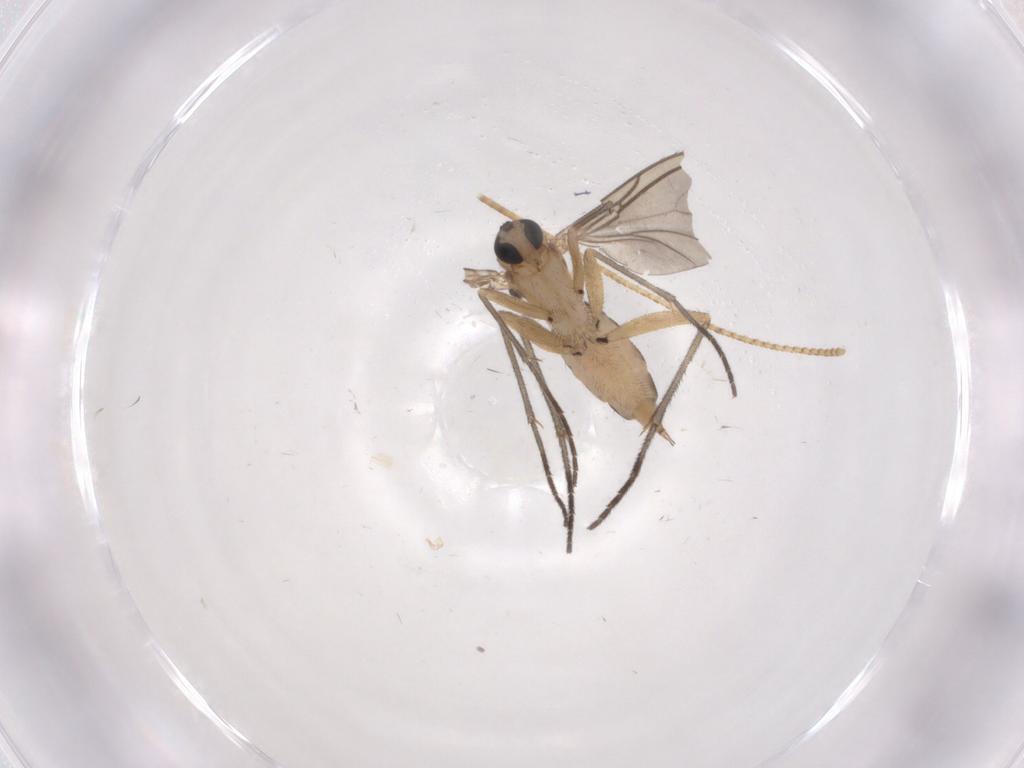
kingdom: Animalia
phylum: Arthropoda
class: Insecta
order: Diptera
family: Sciaridae
